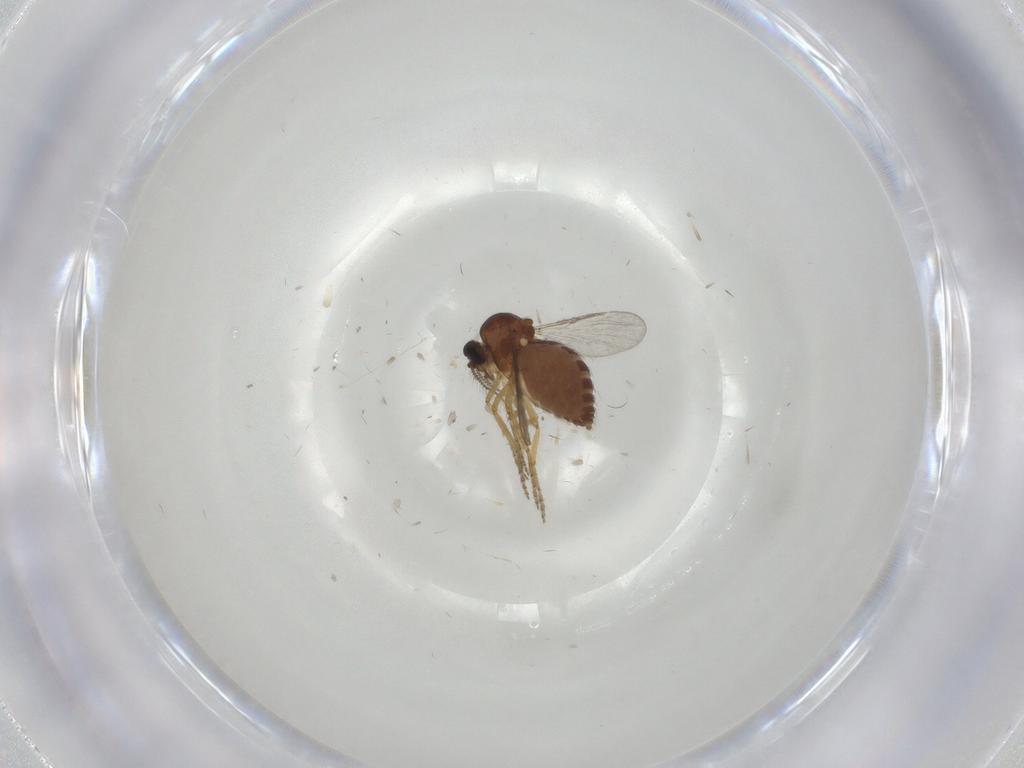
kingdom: Animalia
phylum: Arthropoda
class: Insecta
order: Diptera
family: Ceratopogonidae
